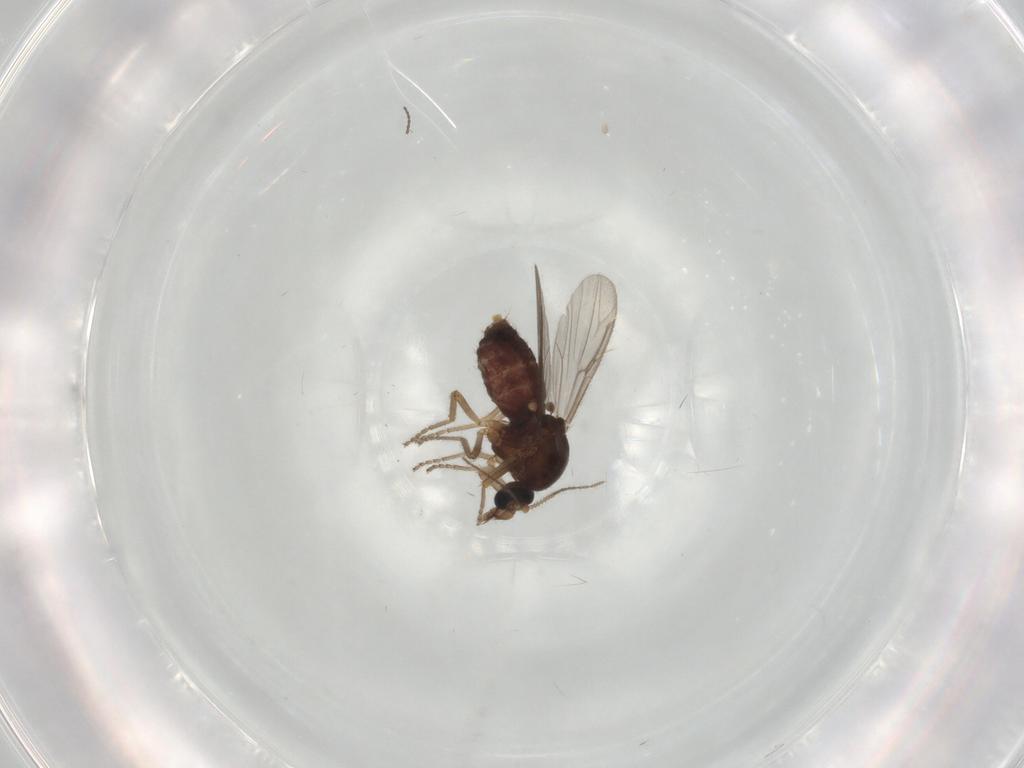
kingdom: Animalia
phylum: Arthropoda
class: Insecta
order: Diptera
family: Ceratopogonidae
